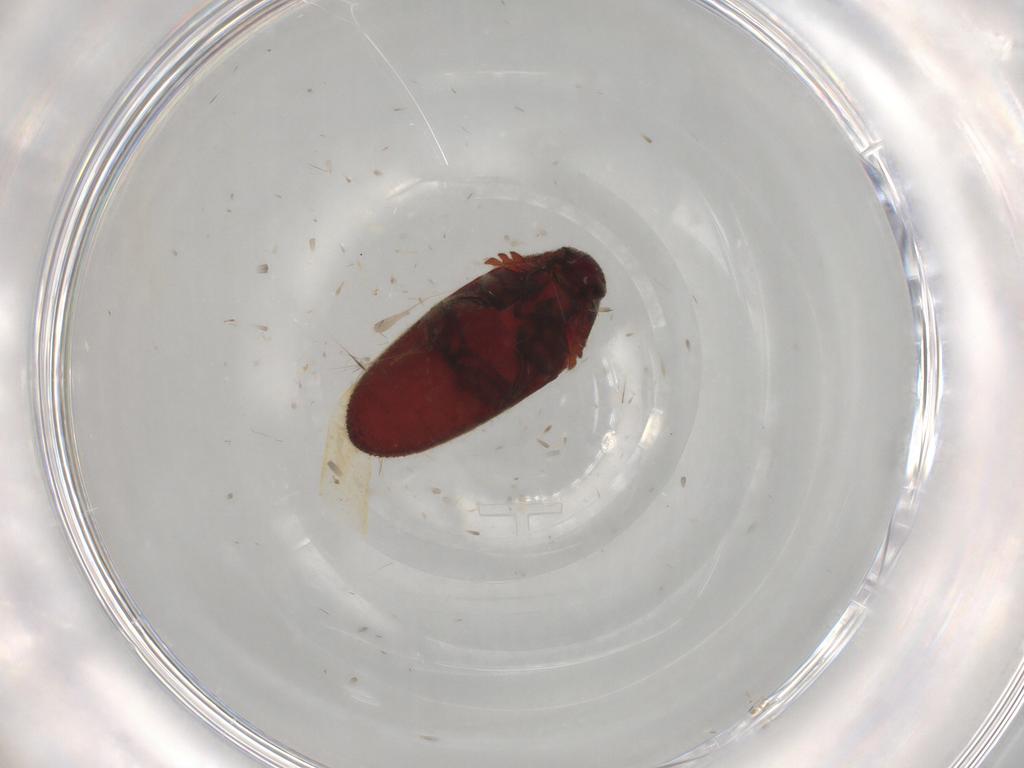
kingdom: Animalia
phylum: Arthropoda
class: Insecta
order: Coleoptera
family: Throscidae
